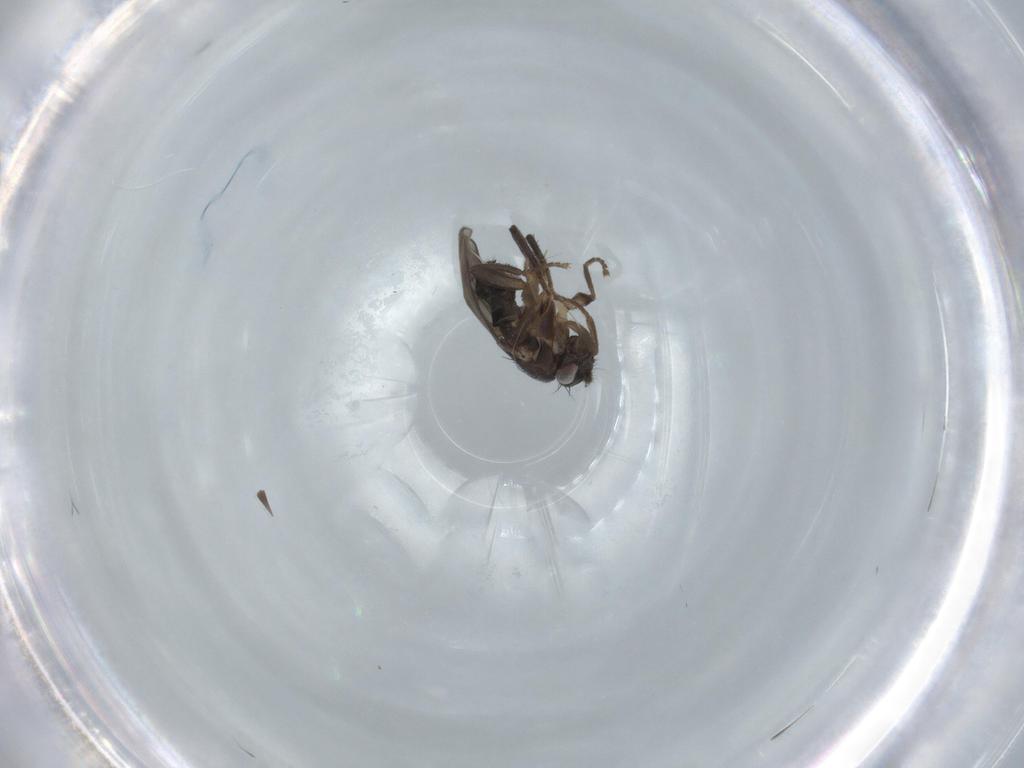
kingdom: Animalia
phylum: Arthropoda
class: Insecta
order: Diptera
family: Sphaeroceridae
